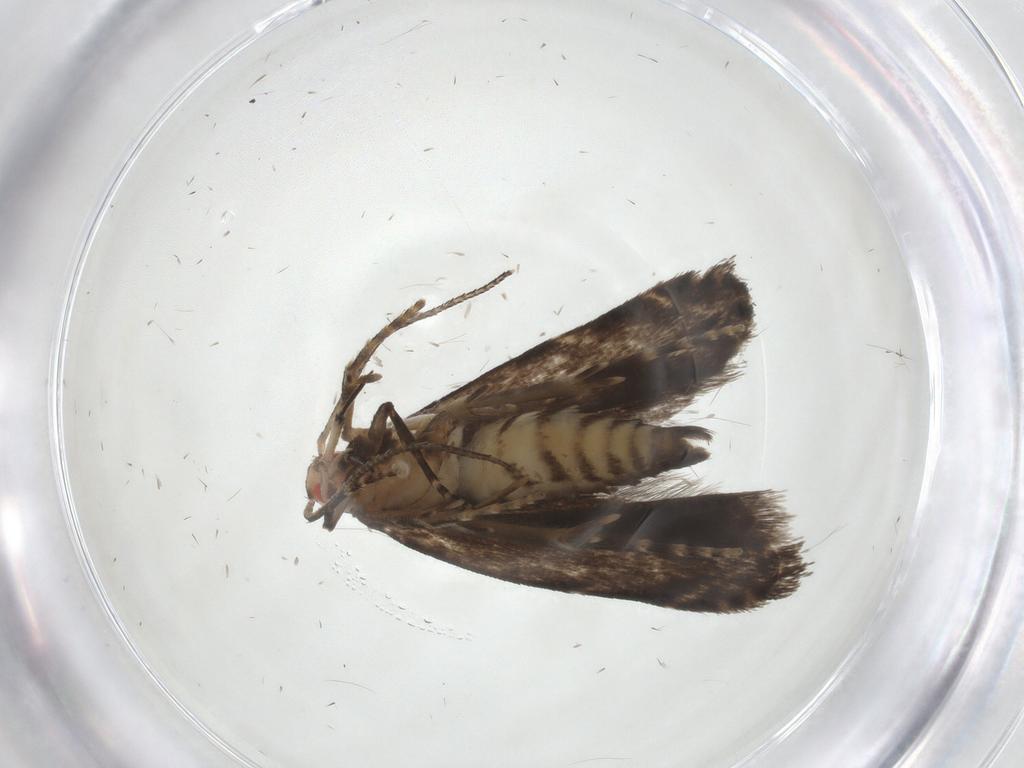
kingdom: Animalia
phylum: Arthropoda
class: Insecta
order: Lepidoptera
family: Gelechiidae
